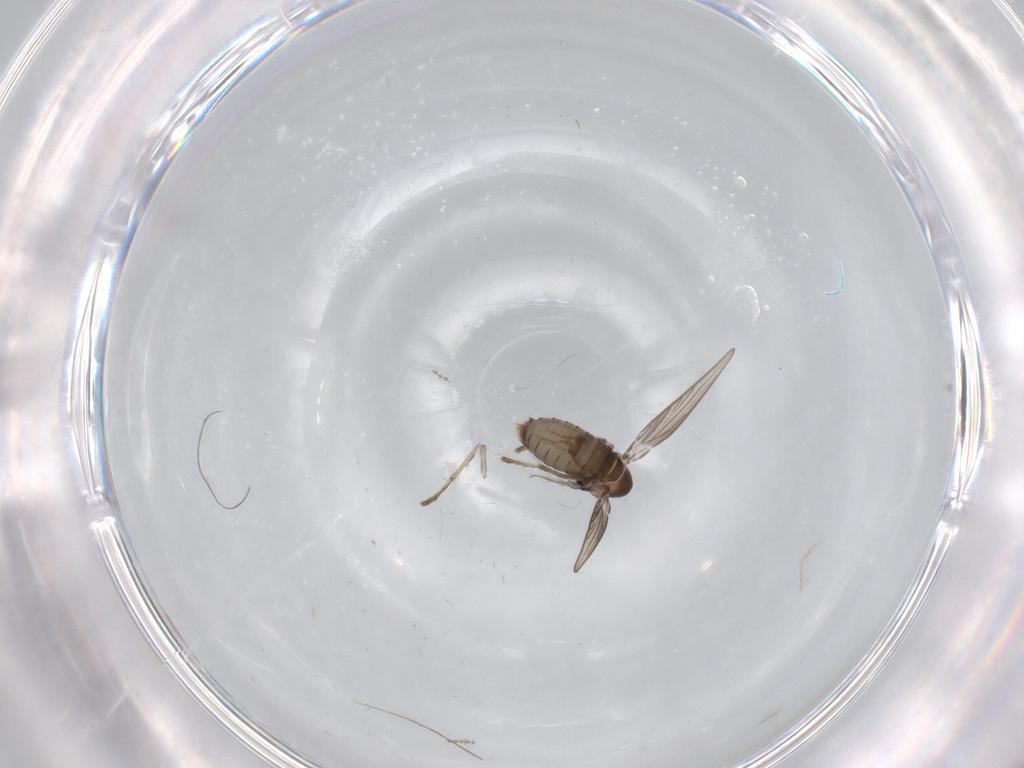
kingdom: Animalia
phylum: Arthropoda
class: Insecta
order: Diptera
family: Psychodidae
